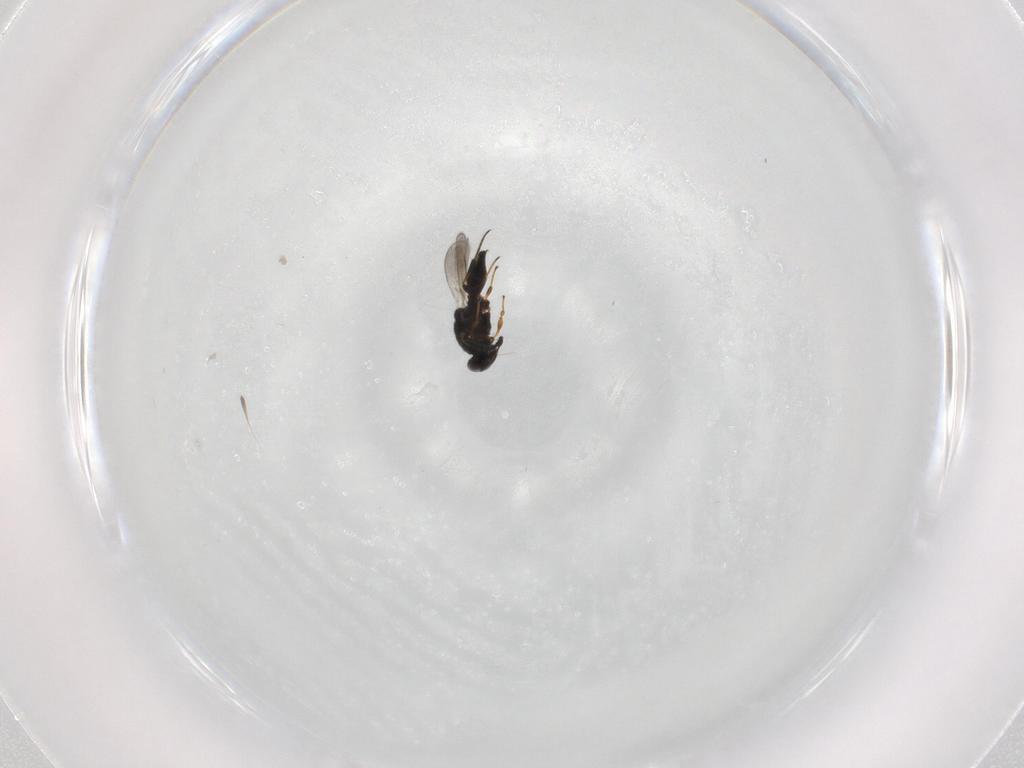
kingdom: Animalia
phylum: Arthropoda
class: Insecta
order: Hymenoptera
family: Platygastridae
